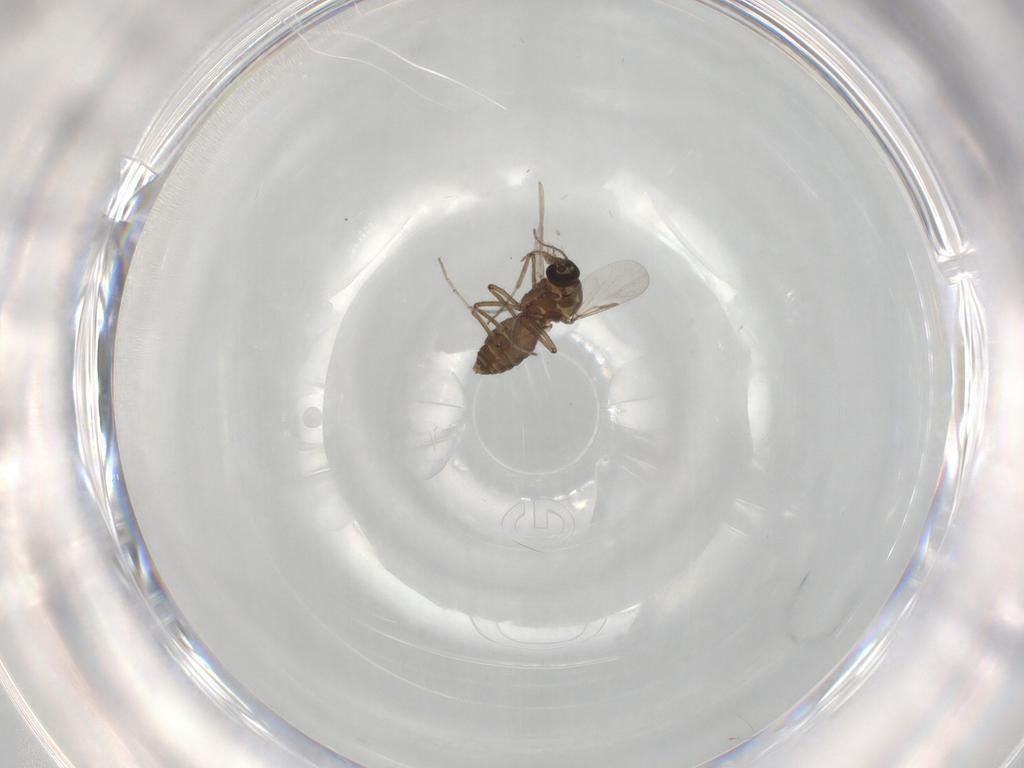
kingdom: Animalia
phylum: Arthropoda
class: Insecta
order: Diptera
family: Ceratopogonidae
